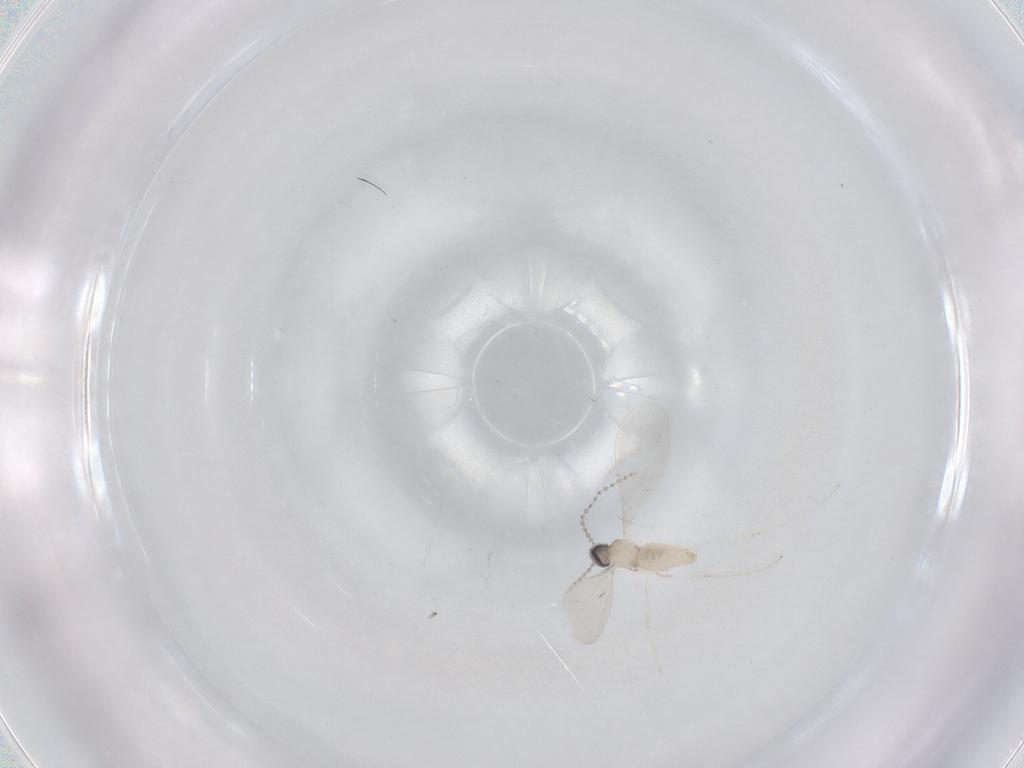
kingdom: Animalia
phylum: Arthropoda
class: Insecta
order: Diptera
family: Cecidomyiidae
